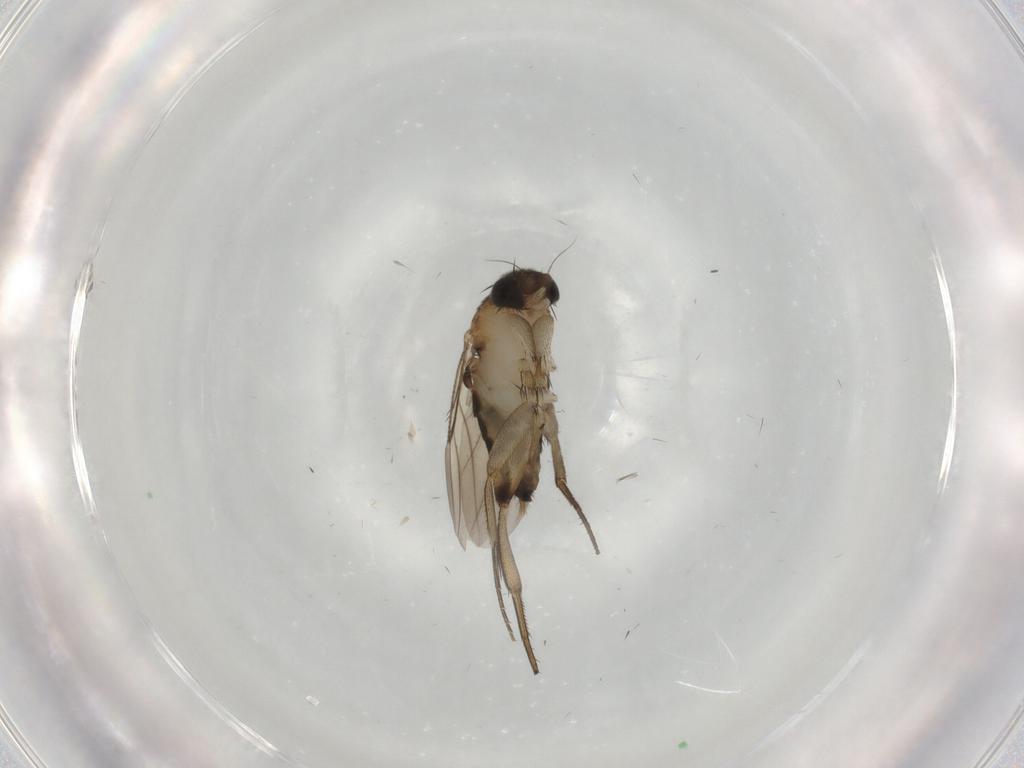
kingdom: Animalia
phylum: Arthropoda
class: Insecta
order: Diptera
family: Phoridae
